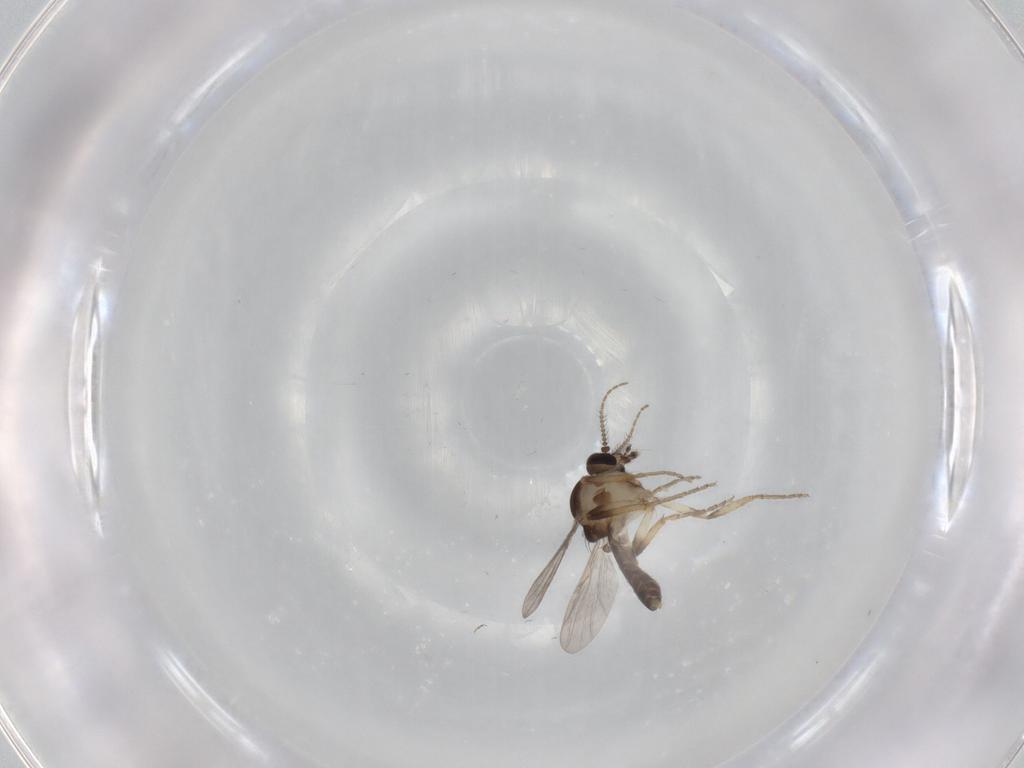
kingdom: Animalia
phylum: Arthropoda
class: Insecta
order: Diptera
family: Ceratopogonidae
